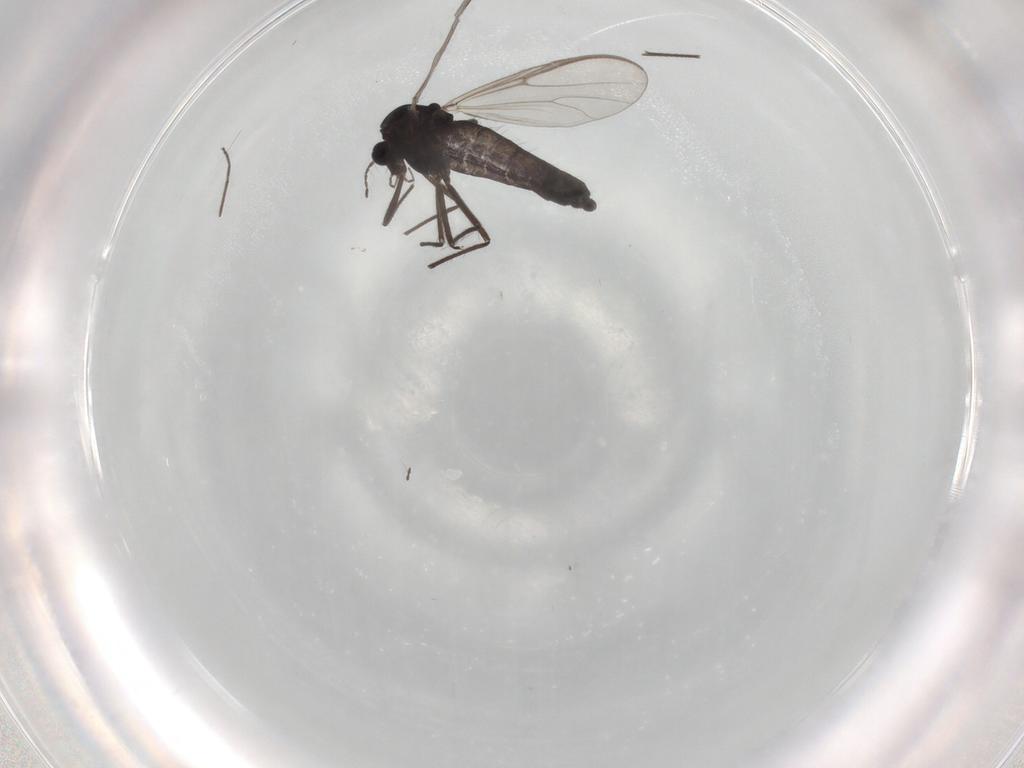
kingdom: Animalia
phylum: Arthropoda
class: Insecta
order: Diptera
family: Chironomidae
